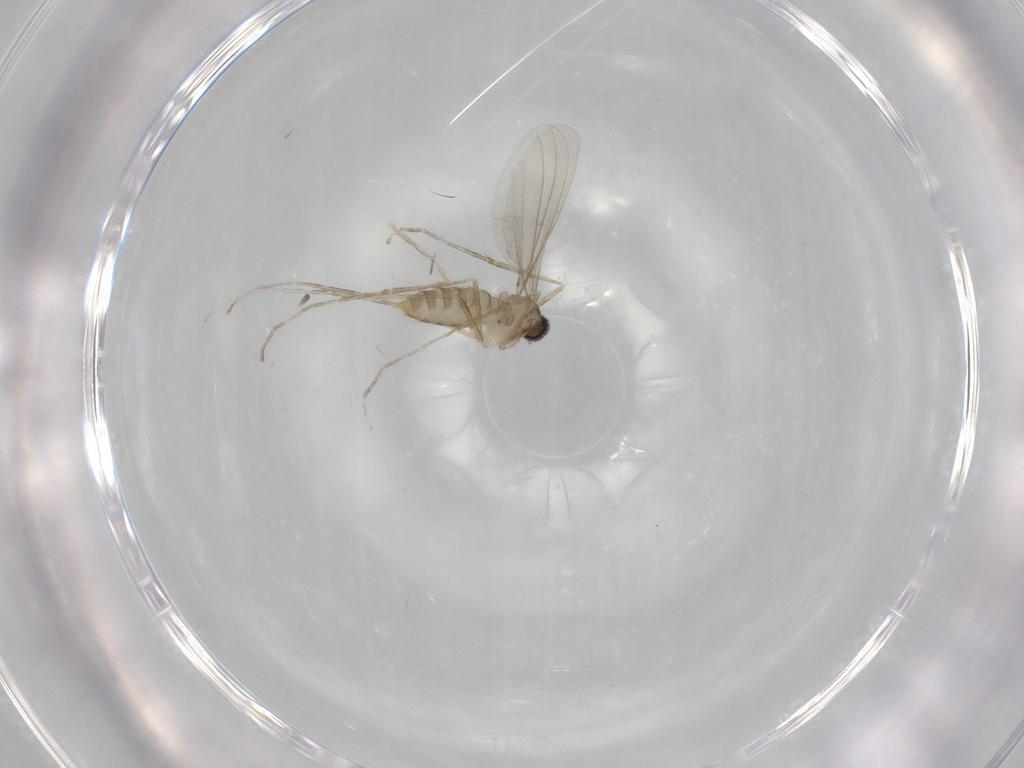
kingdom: Animalia
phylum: Arthropoda
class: Insecta
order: Diptera
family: Cecidomyiidae
